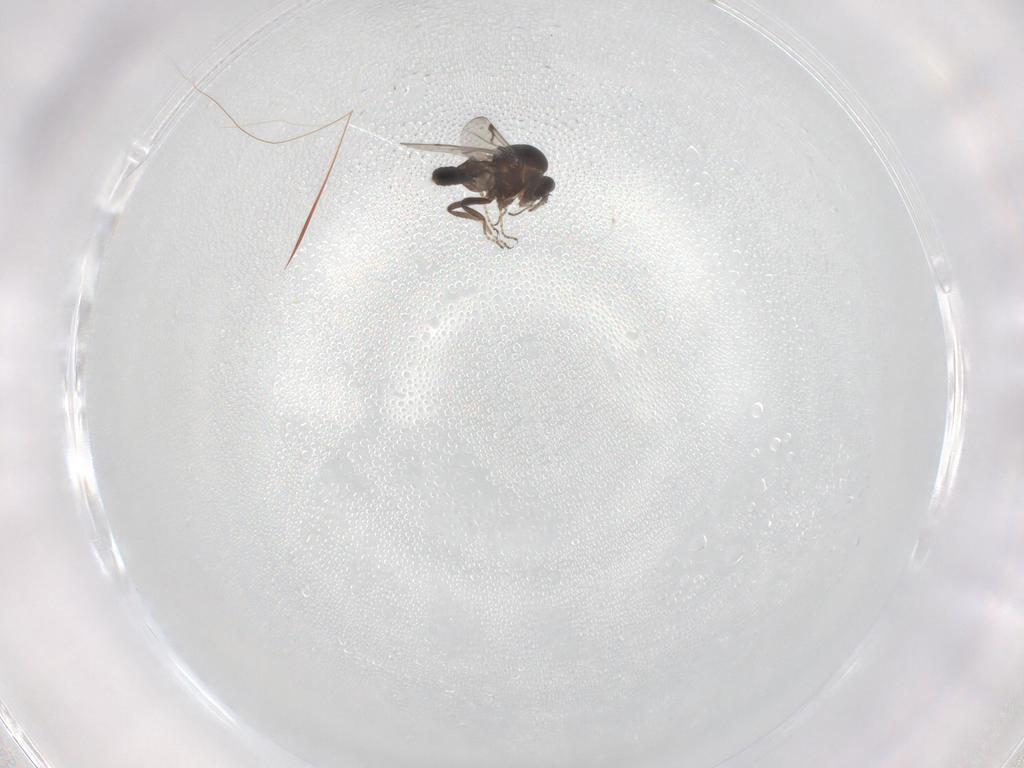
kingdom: Animalia
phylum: Arthropoda
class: Insecta
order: Diptera
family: Ceratopogonidae
